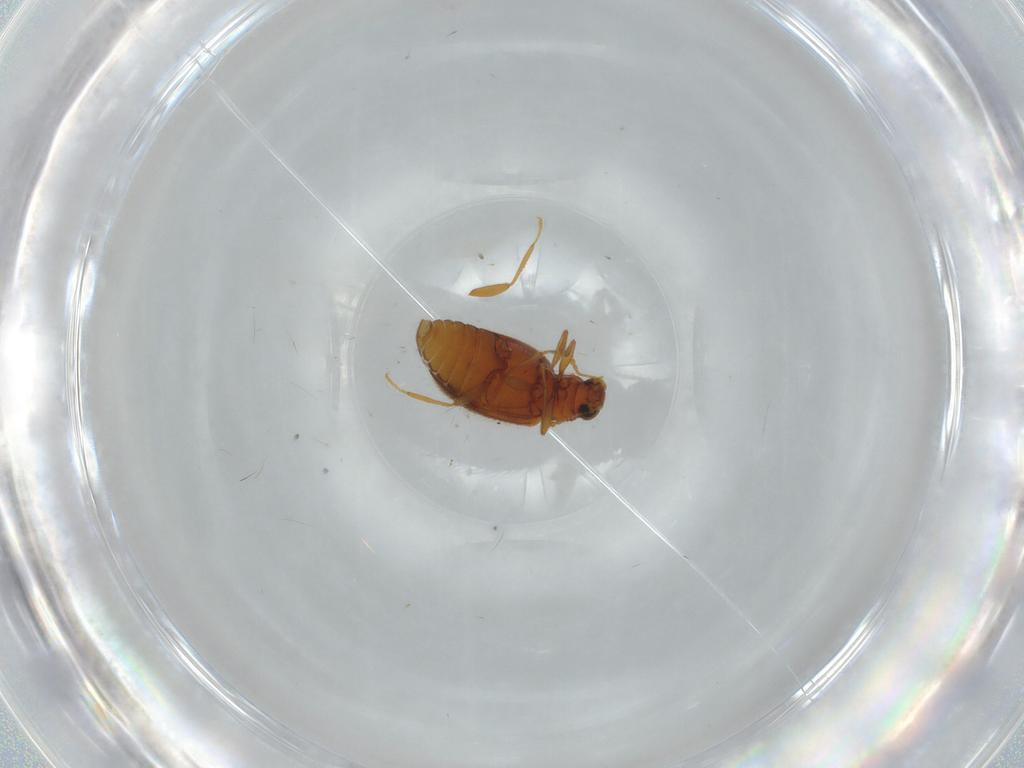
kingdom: Animalia
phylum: Arthropoda
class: Insecta
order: Coleoptera
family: Latridiidae
